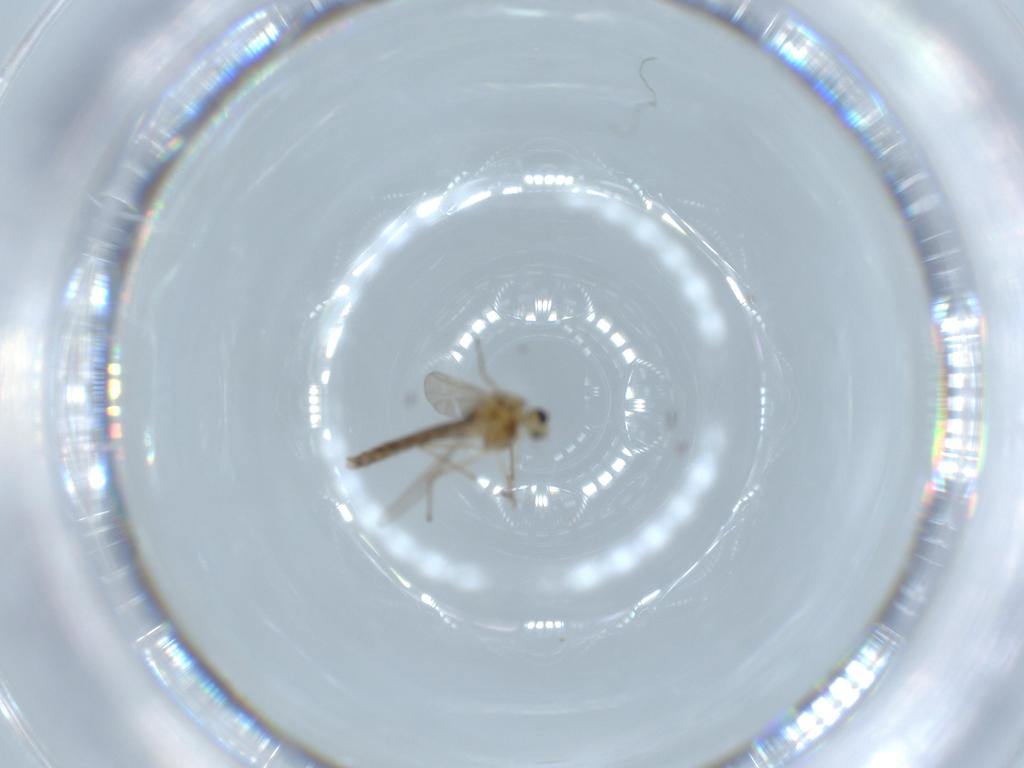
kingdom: Animalia
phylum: Arthropoda
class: Insecta
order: Diptera
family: Chironomidae
